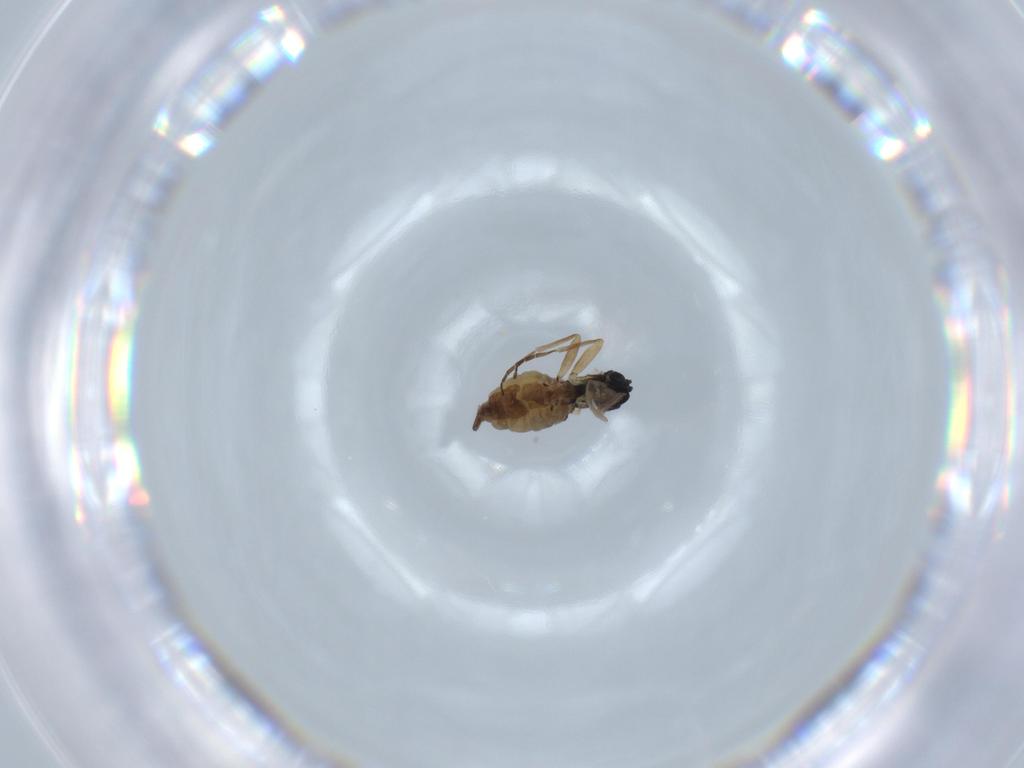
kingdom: Animalia
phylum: Arthropoda
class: Insecta
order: Diptera
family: Sciaridae
